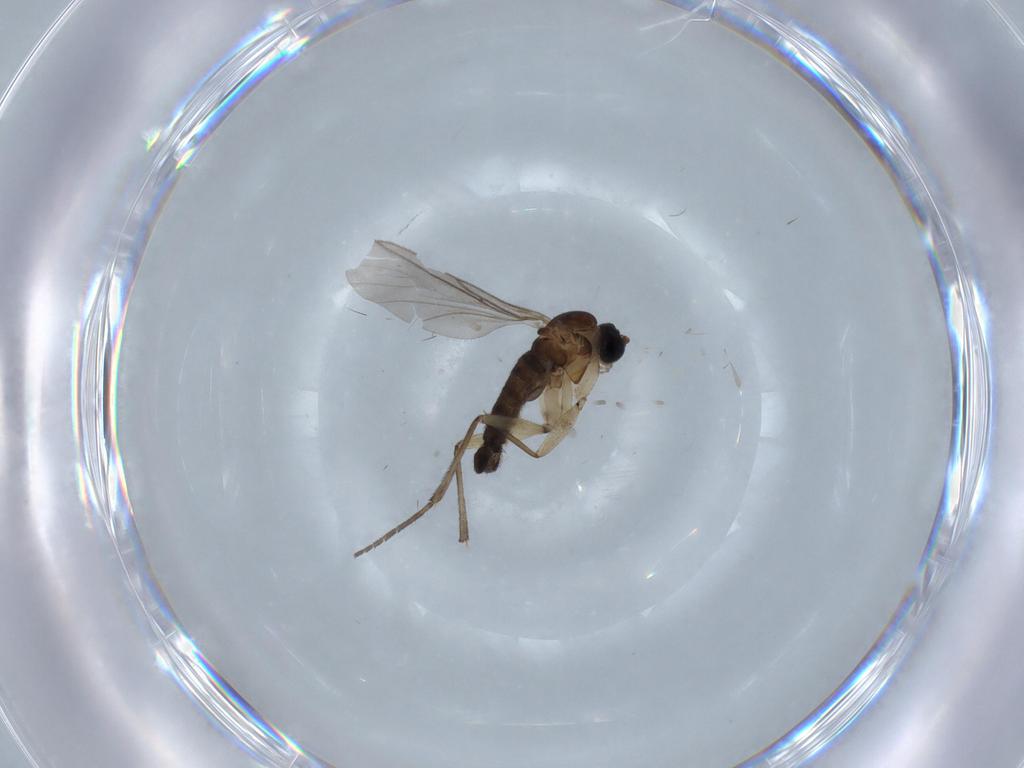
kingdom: Animalia
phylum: Arthropoda
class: Insecta
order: Diptera
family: Sciaridae
